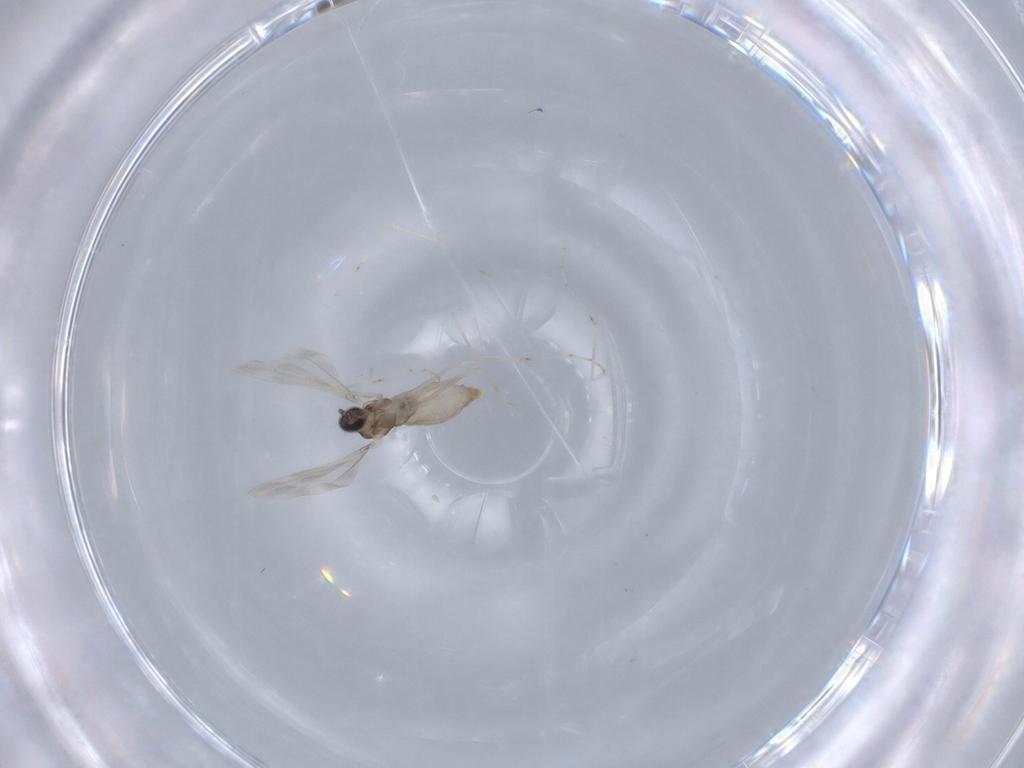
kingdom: Animalia
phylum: Arthropoda
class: Insecta
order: Diptera
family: Cecidomyiidae
